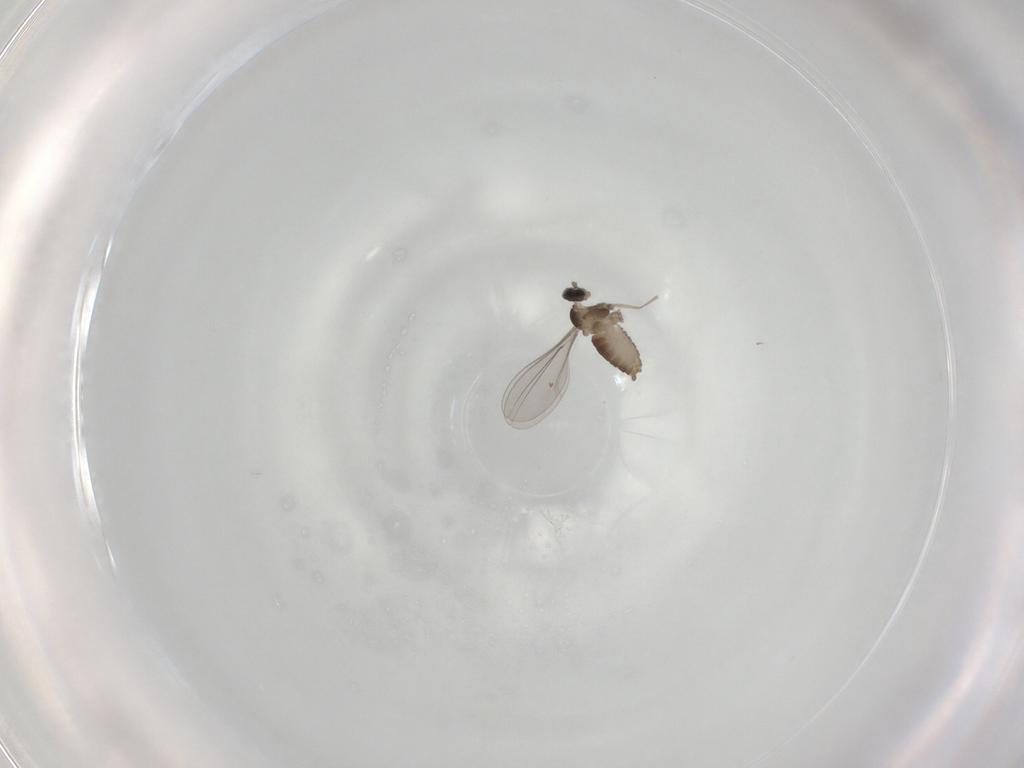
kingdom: Animalia
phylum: Arthropoda
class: Insecta
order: Diptera
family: Cecidomyiidae
